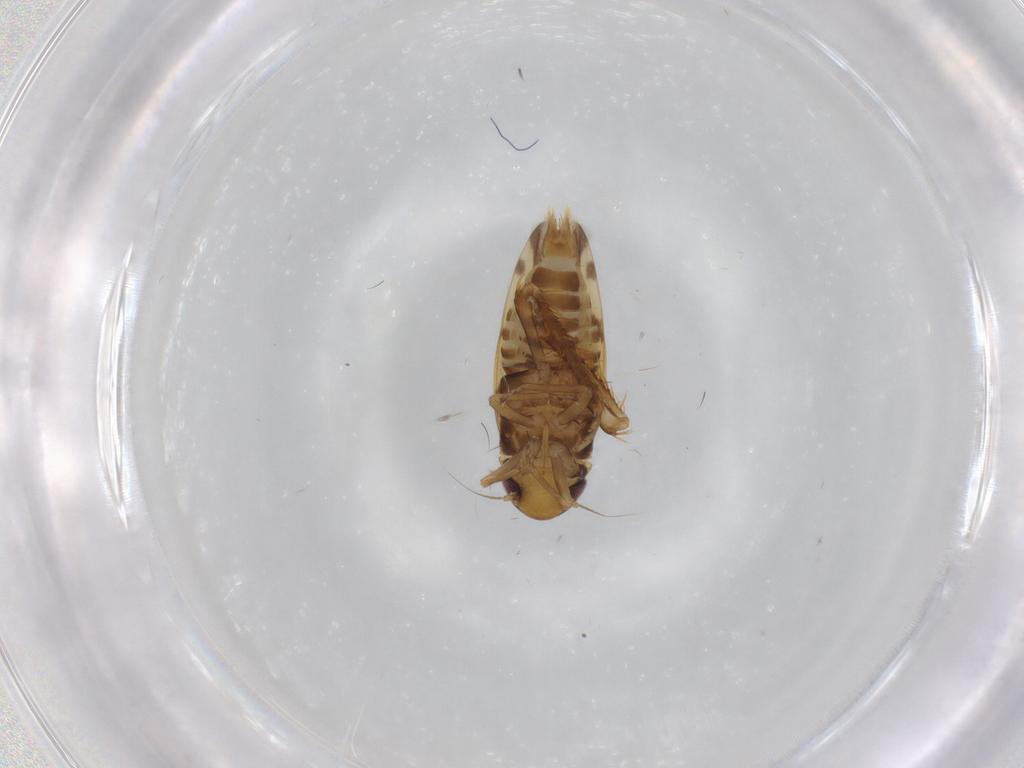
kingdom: Animalia
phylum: Arthropoda
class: Insecta
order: Hemiptera
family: Cicadellidae
